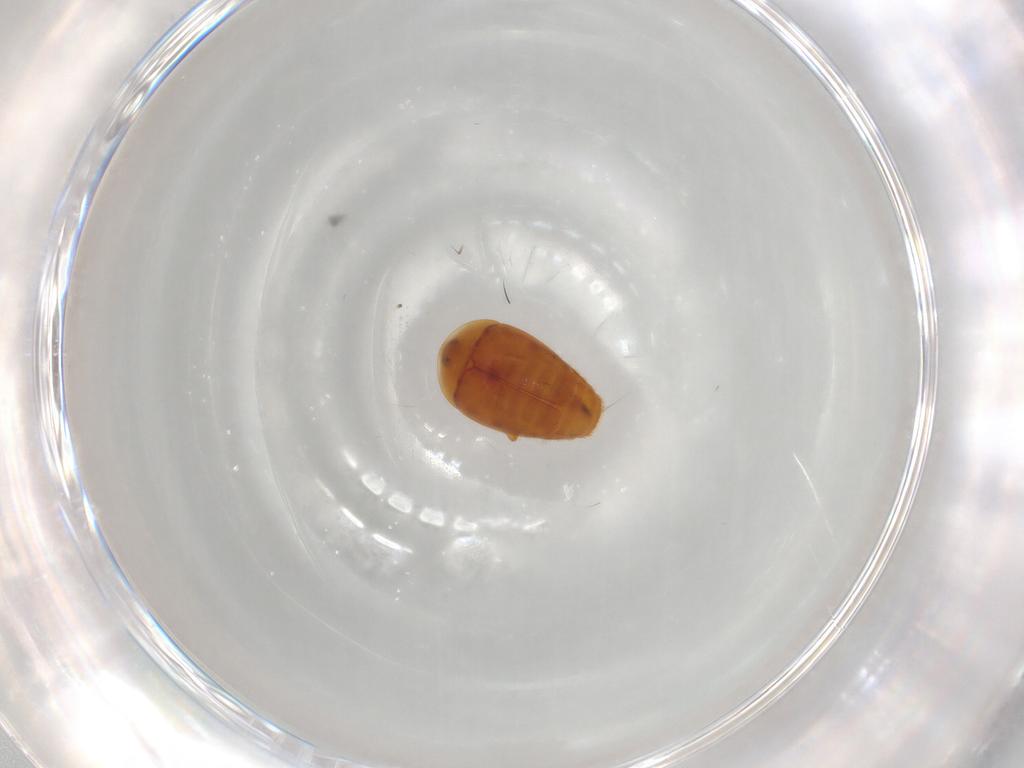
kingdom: Animalia
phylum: Arthropoda
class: Insecta
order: Coleoptera
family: Corylophidae
